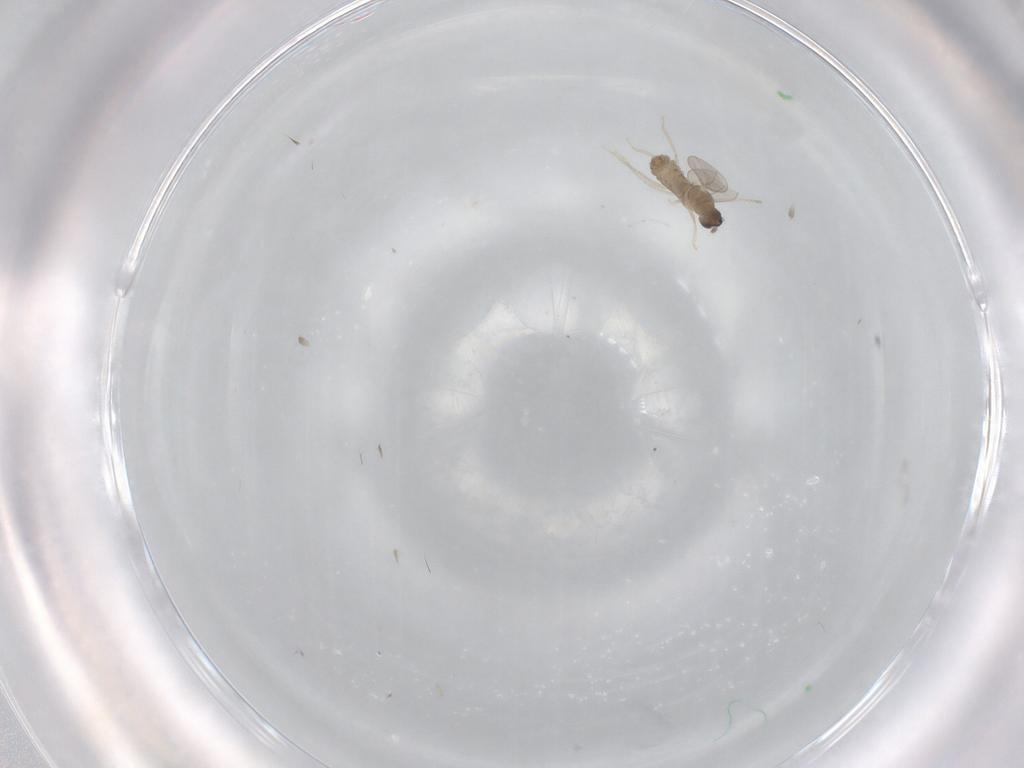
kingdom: Animalia
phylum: Arthropoda
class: Insecta
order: Diptera
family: Cecidomyiidae
